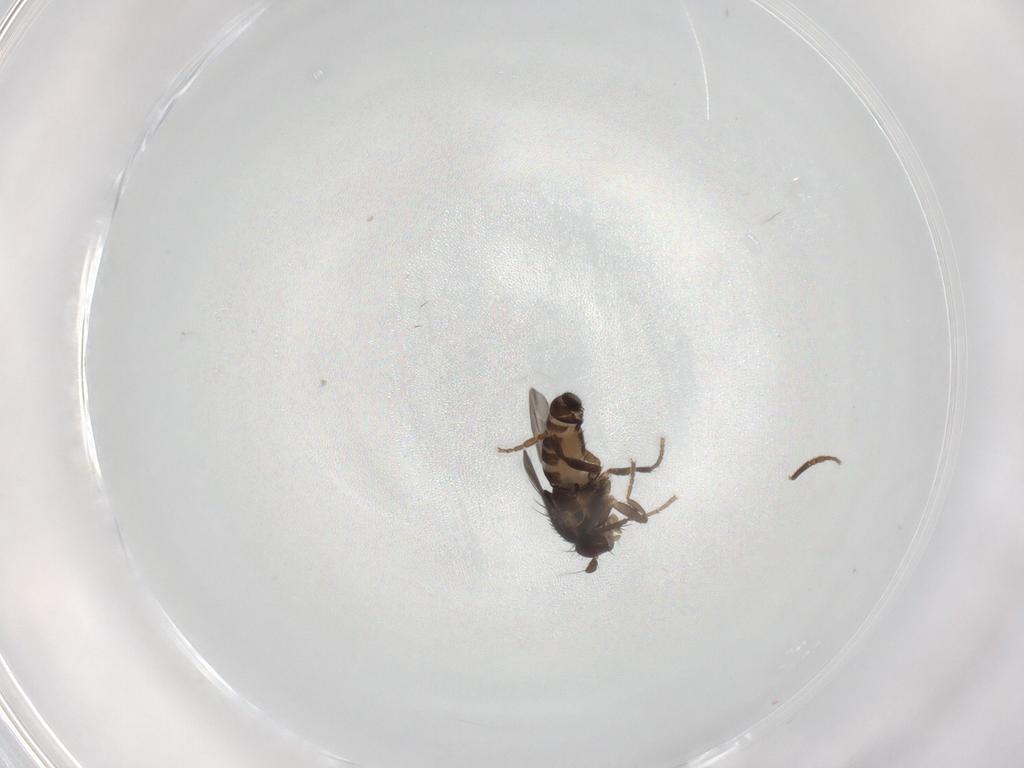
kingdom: Animalia
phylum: Arthropoda
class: Insecta
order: Diptera
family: Sphaeroceridae
